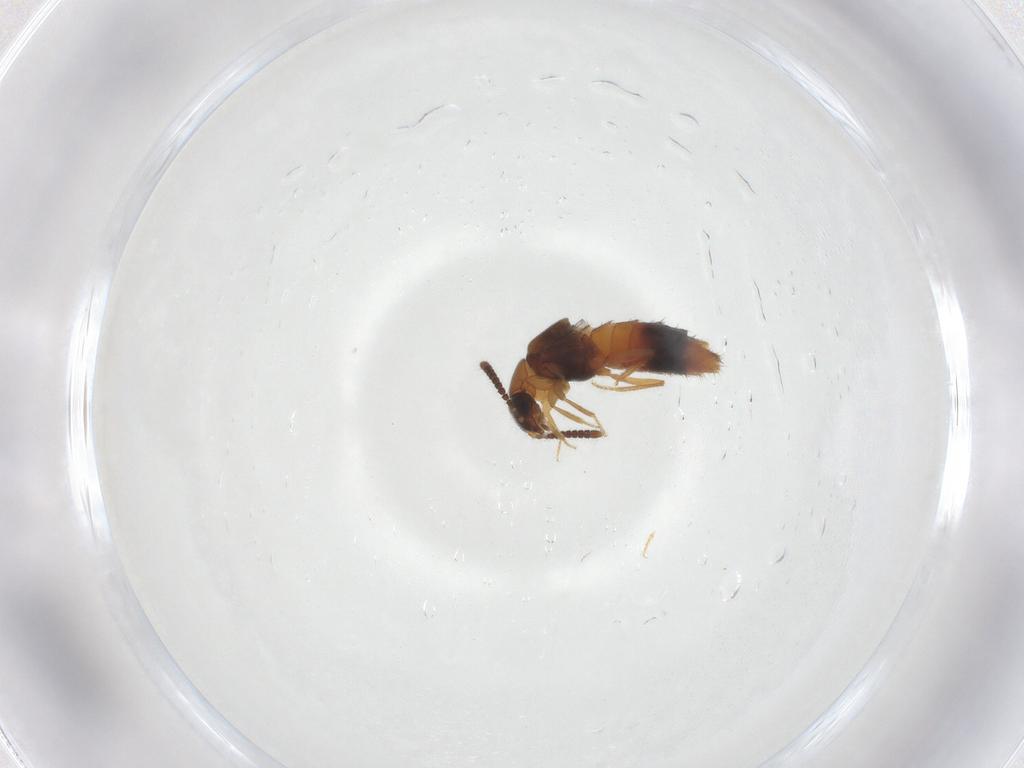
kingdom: Animalia
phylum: Arthropoda
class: Insecta
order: Coleoptera
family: Staphylinidae
